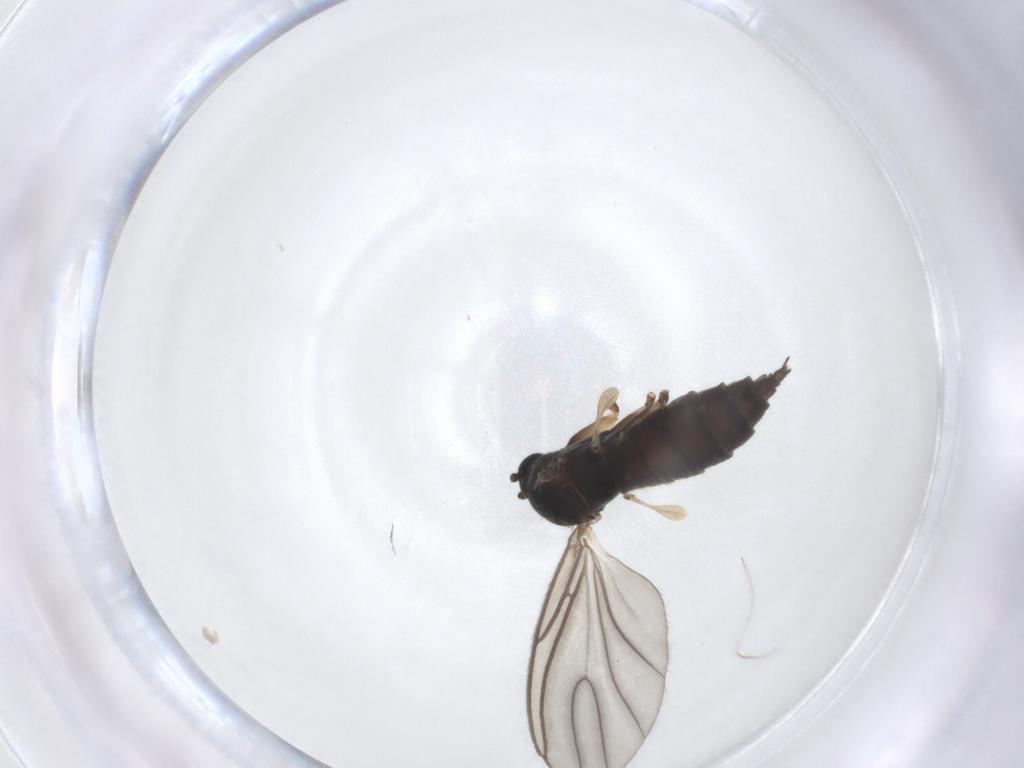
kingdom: Animalia
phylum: Arthropoda
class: Insecta
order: Diptera
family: Sciaridae
